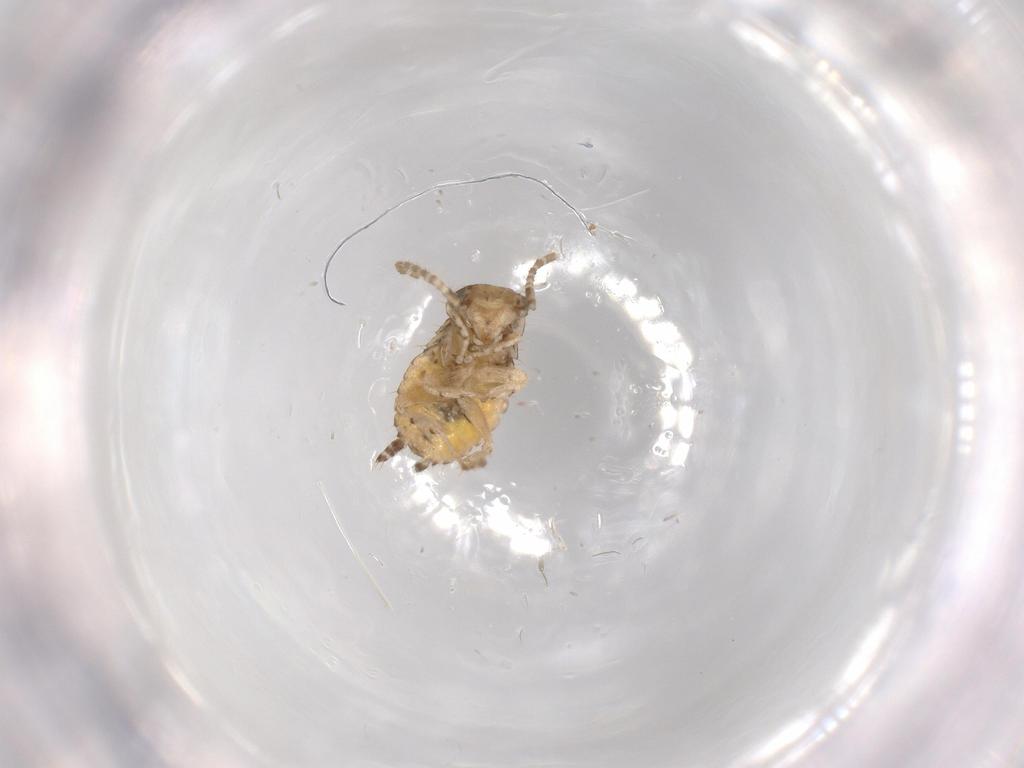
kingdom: Animalia
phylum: Arthropoda
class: Insecta
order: Blattodea
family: Ectobiidae
